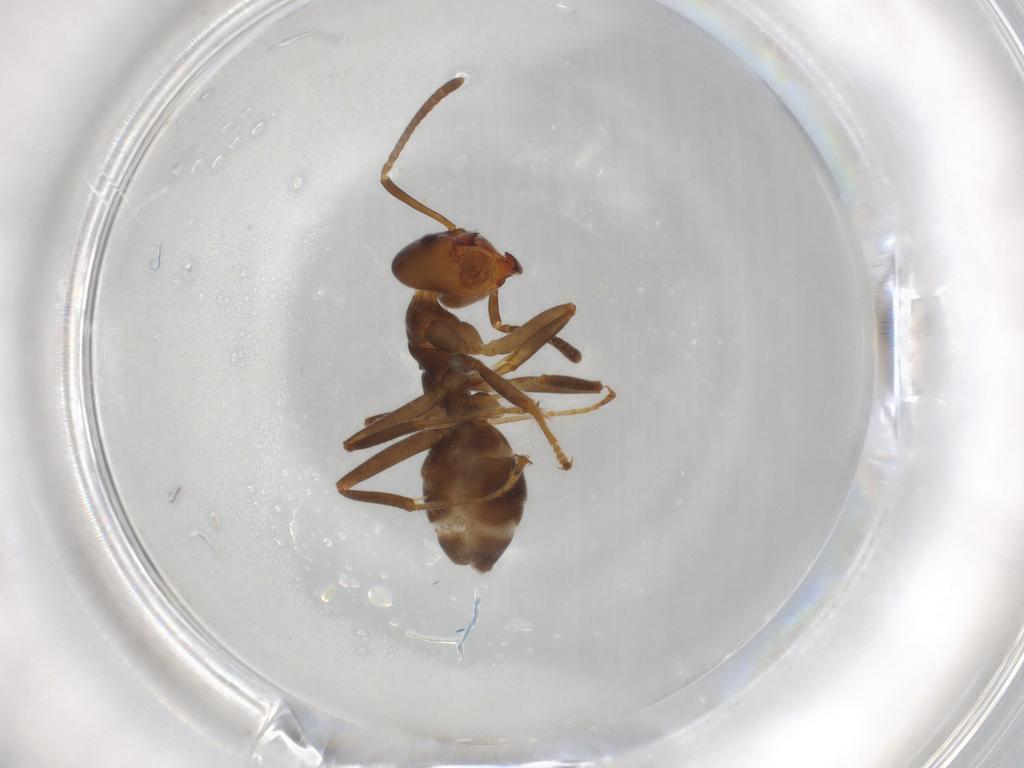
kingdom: Animalia
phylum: Arthropoda
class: Insecta
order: Hymenoptera
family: Formicidae
